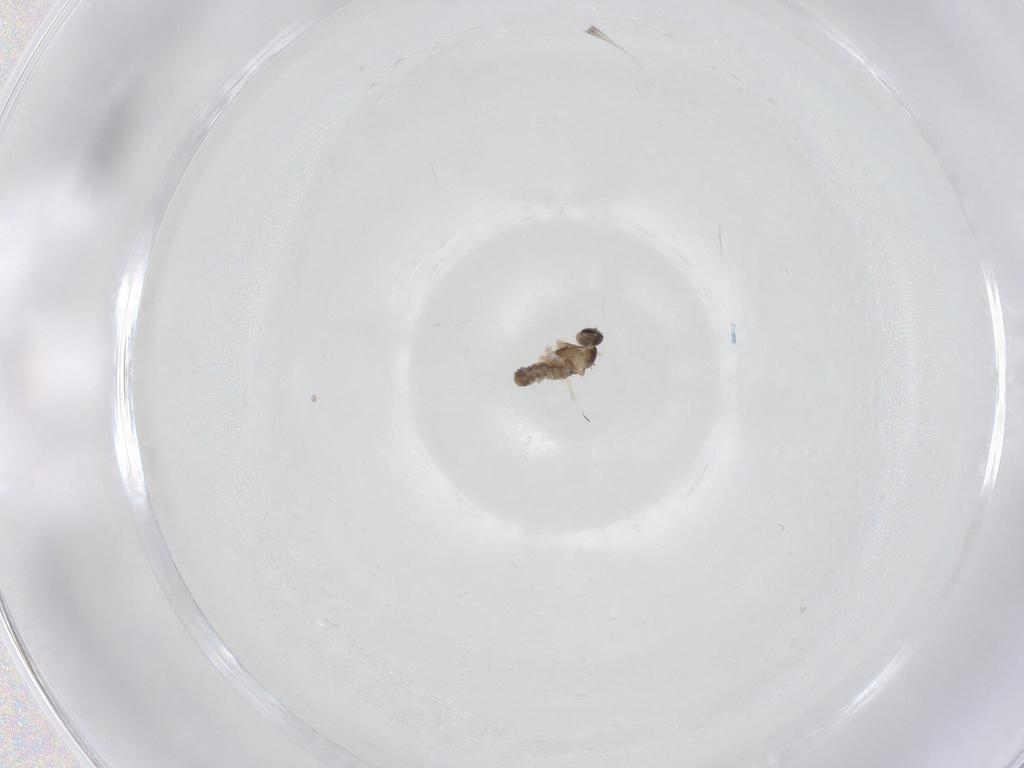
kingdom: Animalia
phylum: Arthropoda
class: Insecta
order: Diptera
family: Cecidomyiidae
